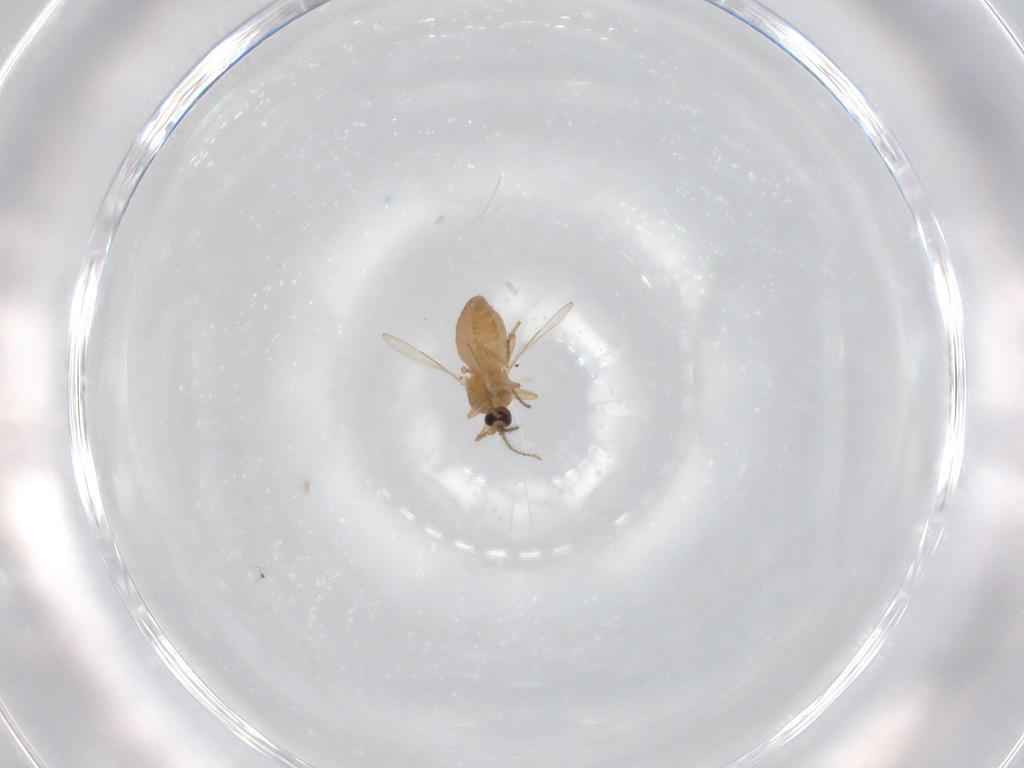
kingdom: Animalia
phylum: Arthropoda
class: Insecta
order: Diptera
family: Ceratopogonidae
